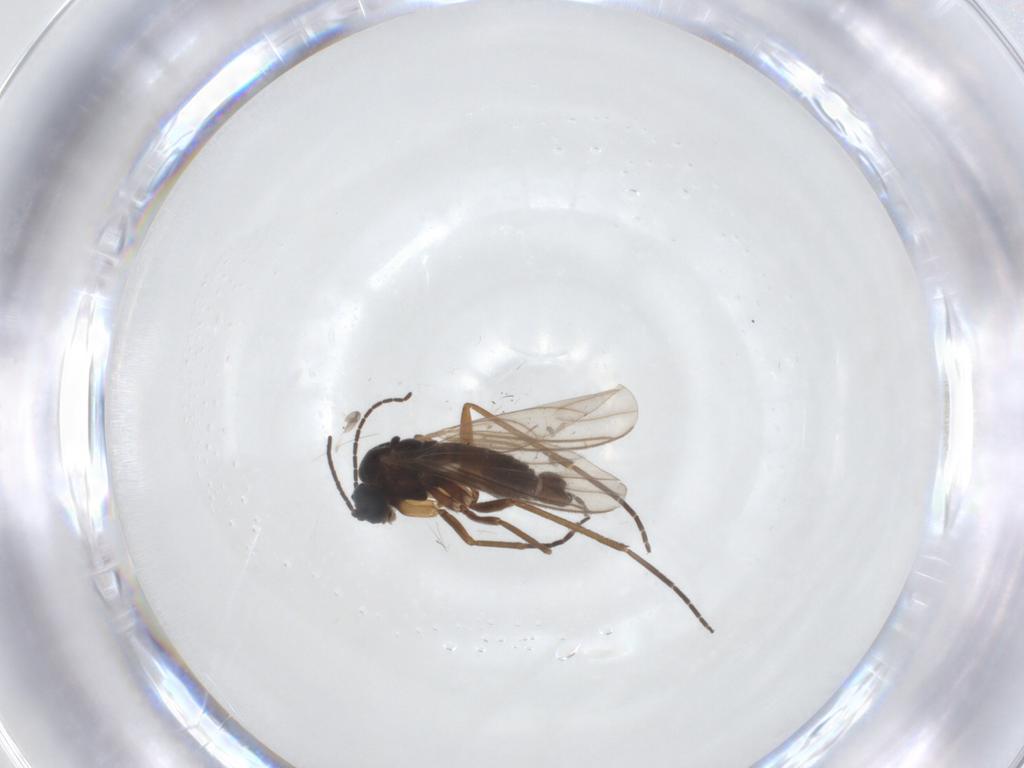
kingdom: Animalia
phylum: Arthropoda
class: Insecta
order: Diptera
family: Sciaridae
